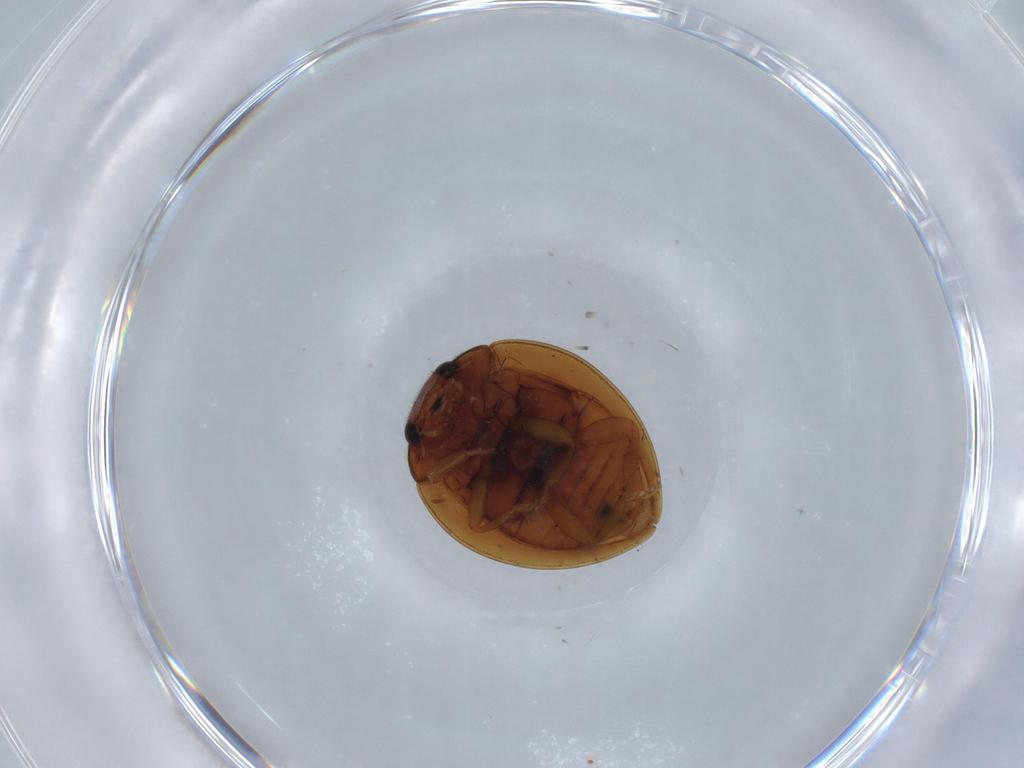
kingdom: Animalia
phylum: Arthropoda
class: Insecta
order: Coleoptera
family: Coccinellidae
